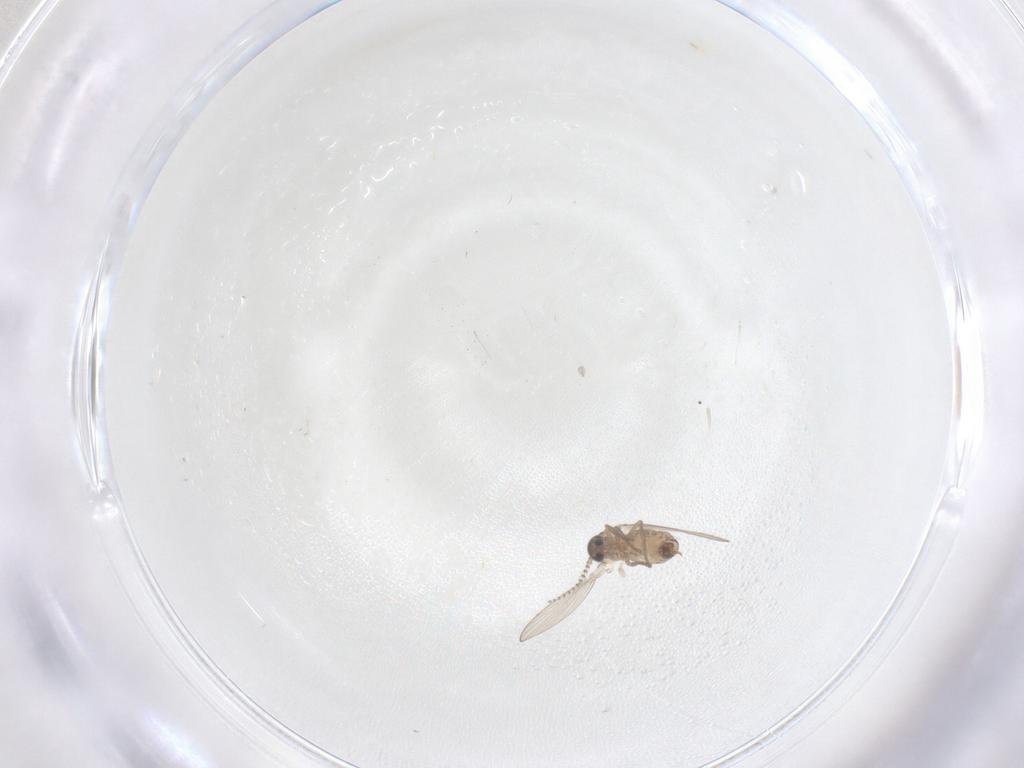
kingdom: Animalia
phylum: Arthropoda
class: Insecta
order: Diptera
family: Psychodidae
